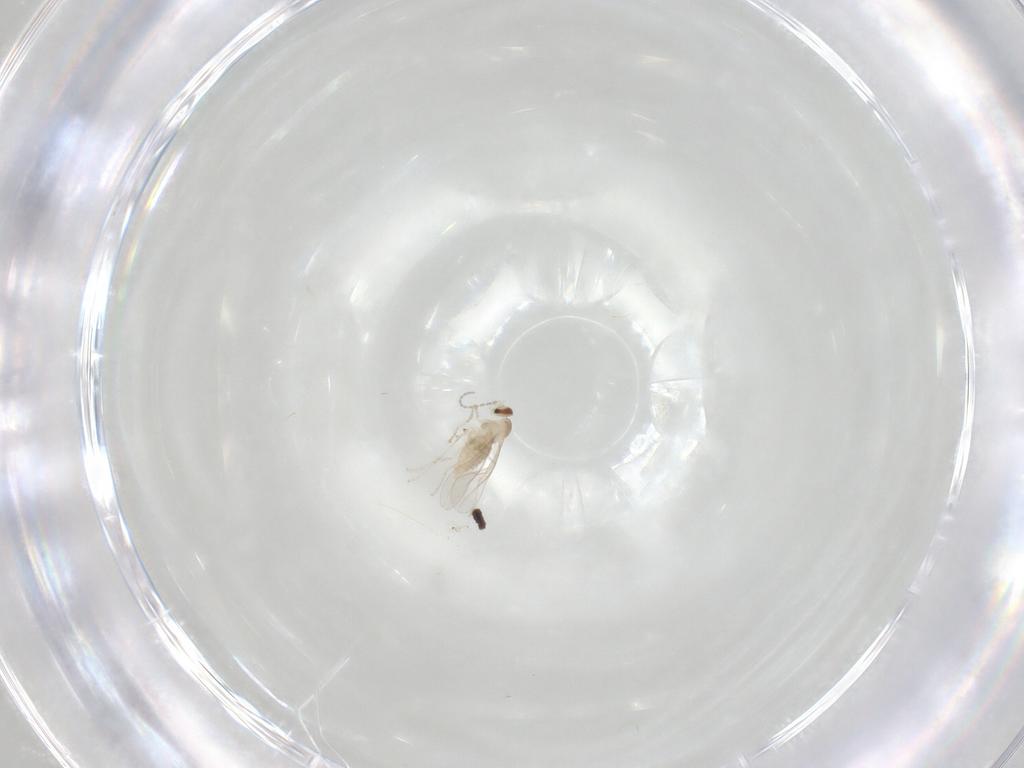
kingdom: Animalia
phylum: Arthropoda
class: Insecta
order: Diptera
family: Cecidomyiidae
